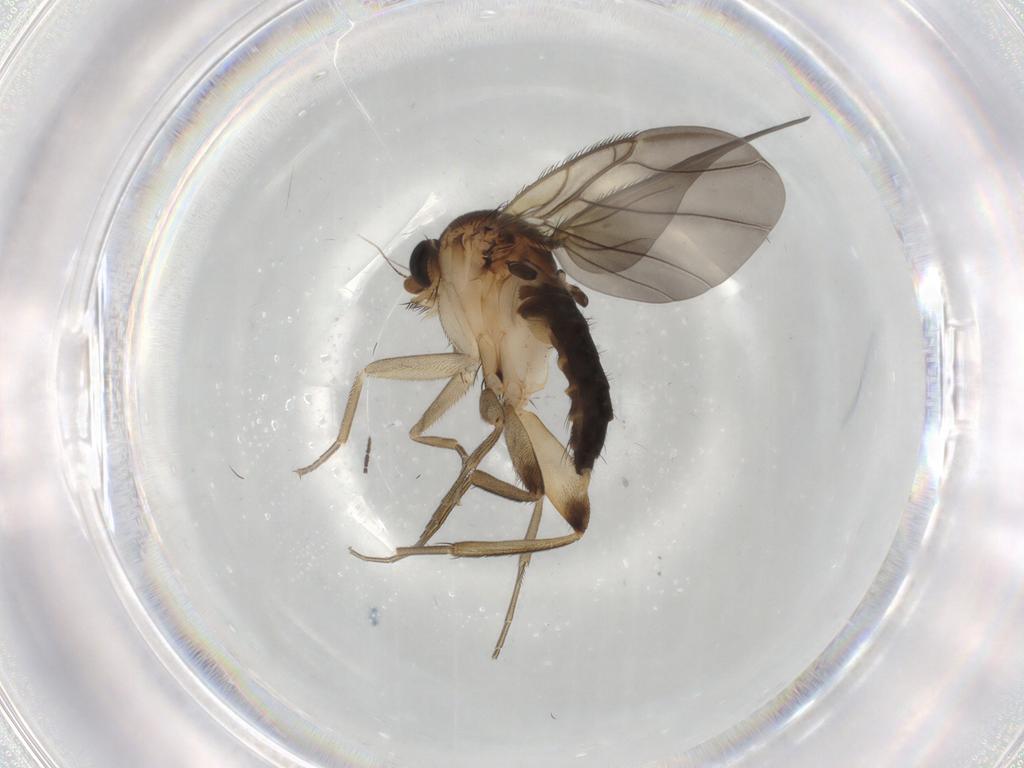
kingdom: Animalia
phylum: Arthropoda
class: Insecta
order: Diptera
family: Phoridae
